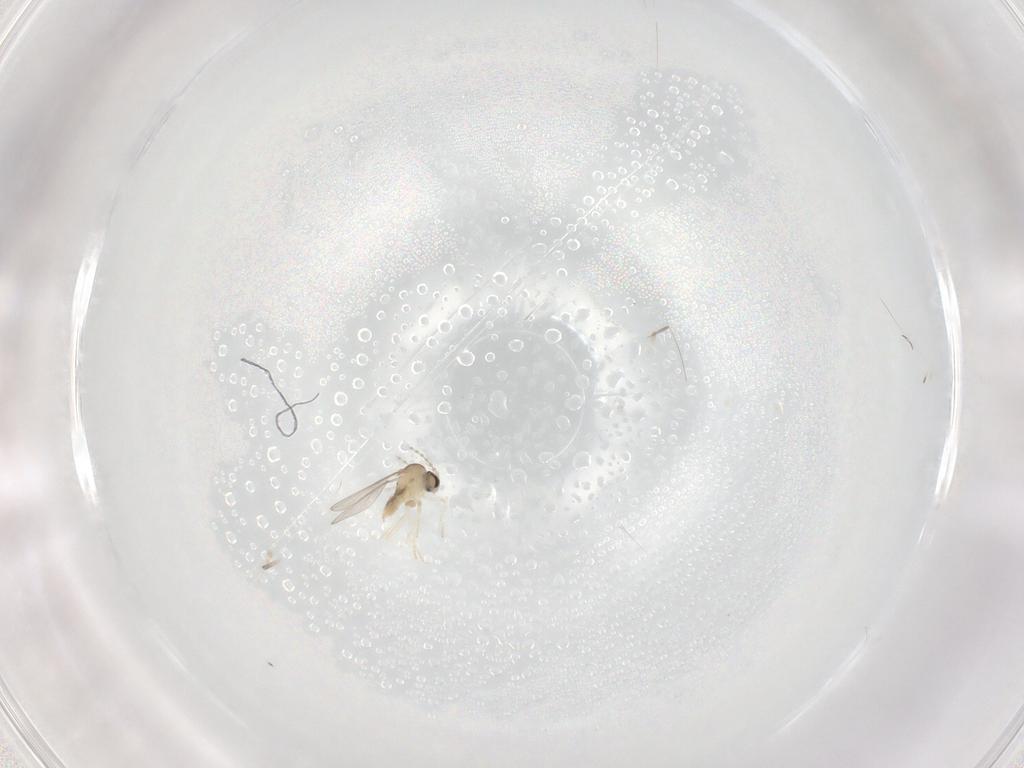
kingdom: Animalia
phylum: Arthropoda
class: Insecta
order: Diptera
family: Cecidomyiidae
